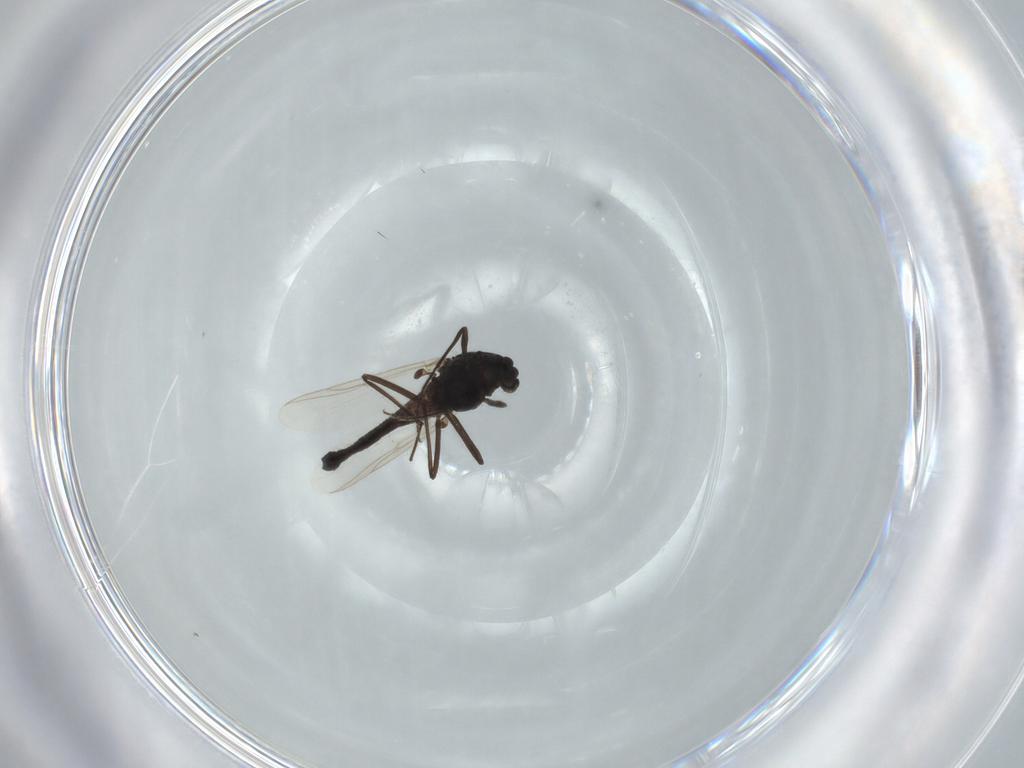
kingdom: Animalia
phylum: Arthropoda
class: Insecta
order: Diptera
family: Chironomidae
